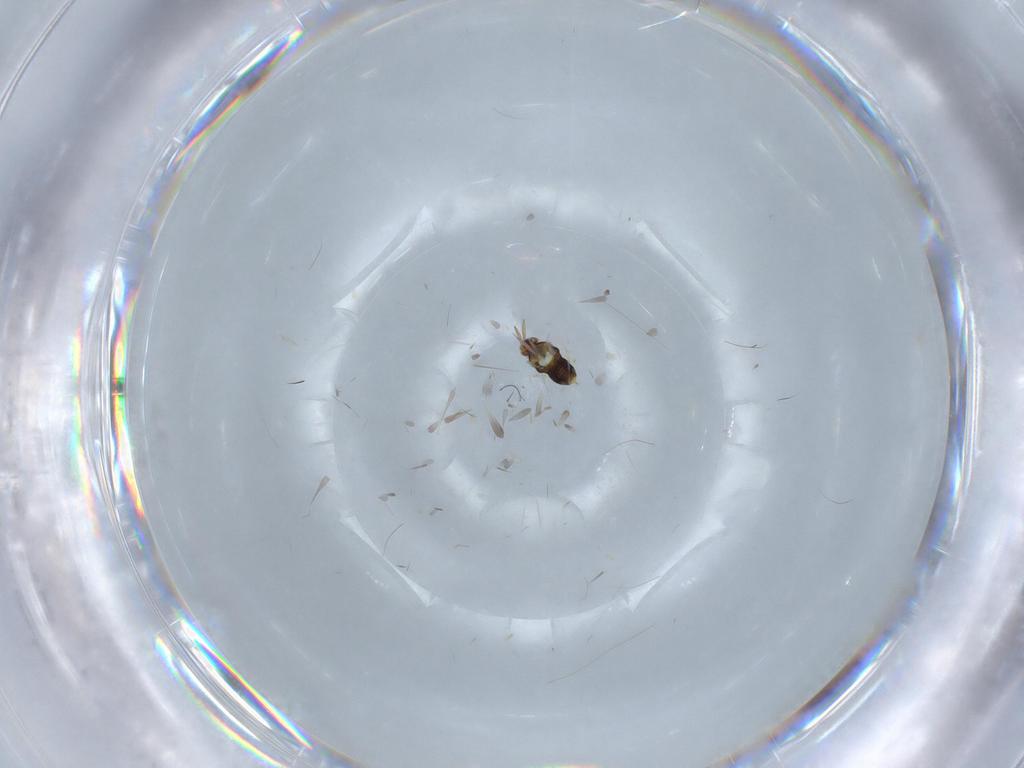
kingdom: Animalia
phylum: Arthropoda
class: Insecta
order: Hymenoptera
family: Aphelinidae
